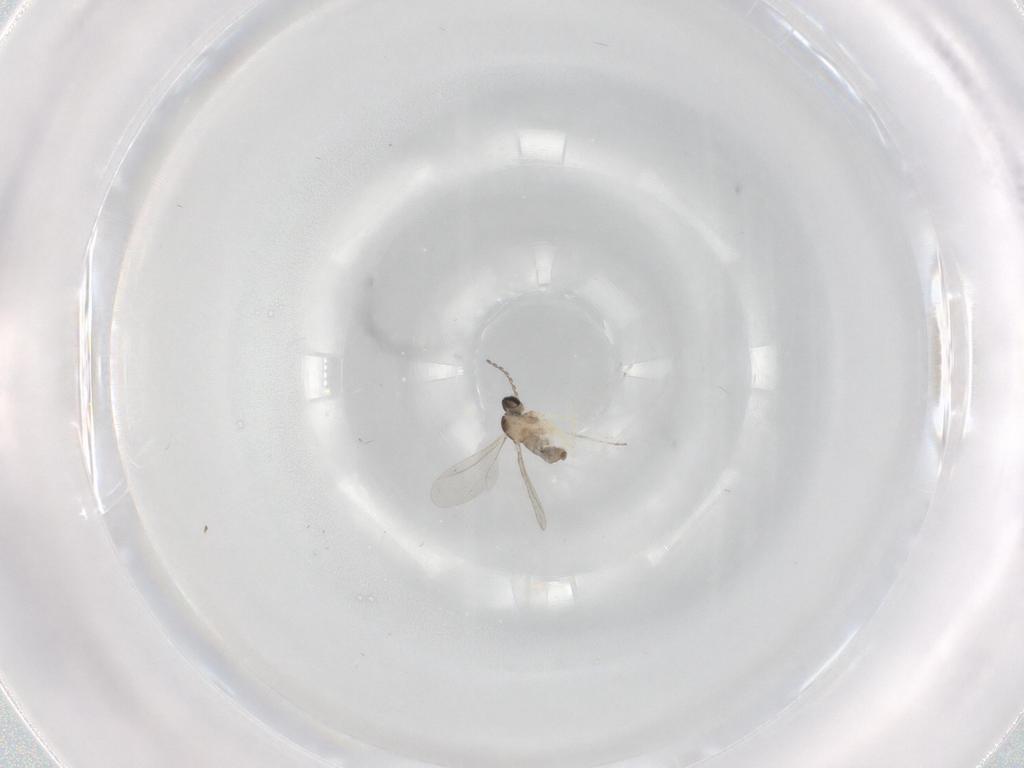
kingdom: Animalia
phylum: Arthropoda
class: Insecta
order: Diptera
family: Cecidomyiidae
